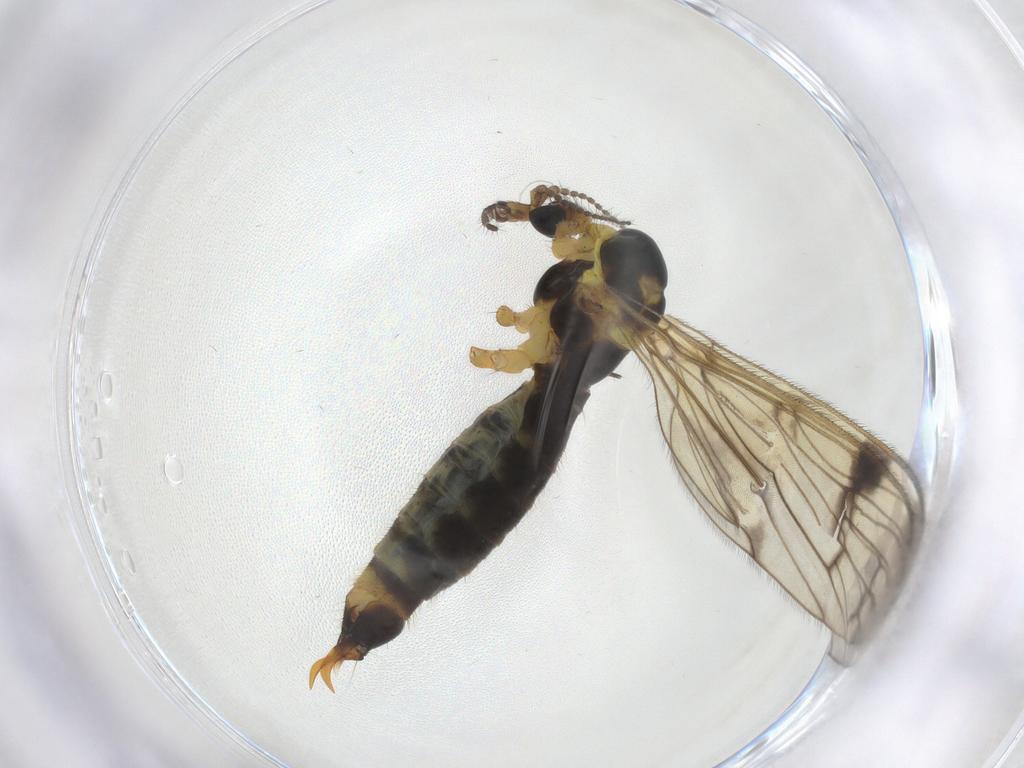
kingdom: Animalia
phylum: Arthropoda
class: Insecta
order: Diptera
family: Limoniidae
